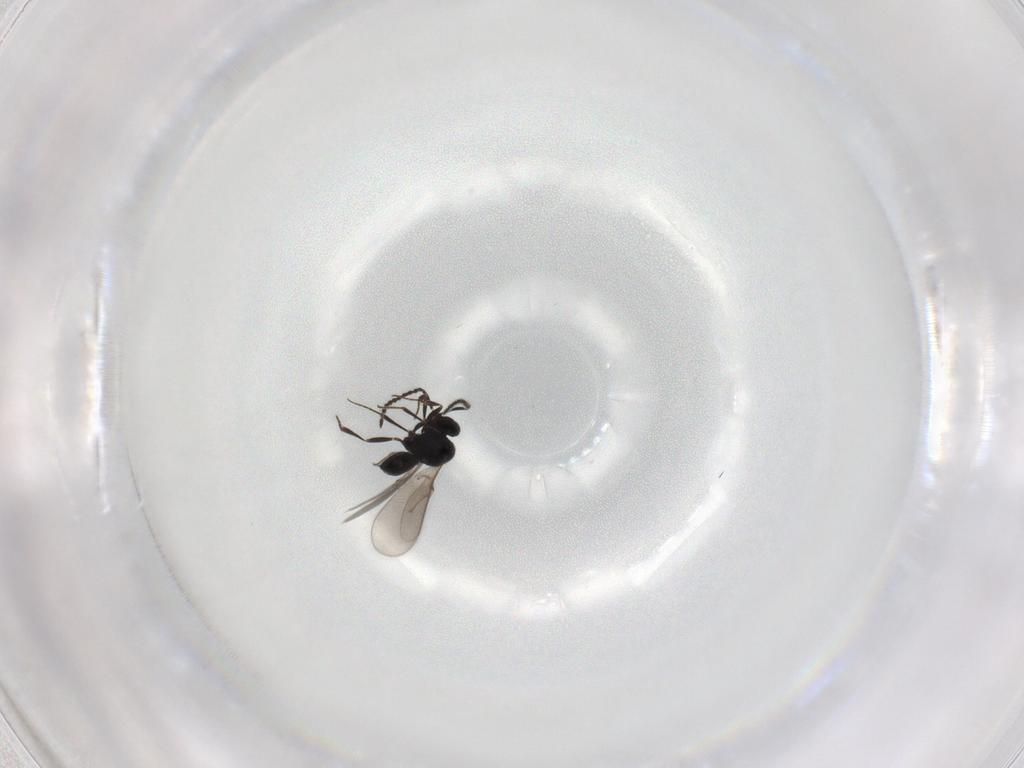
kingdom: Animalia
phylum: Arthropoda
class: Insecta
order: Hymenoptera
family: Scelionidae
